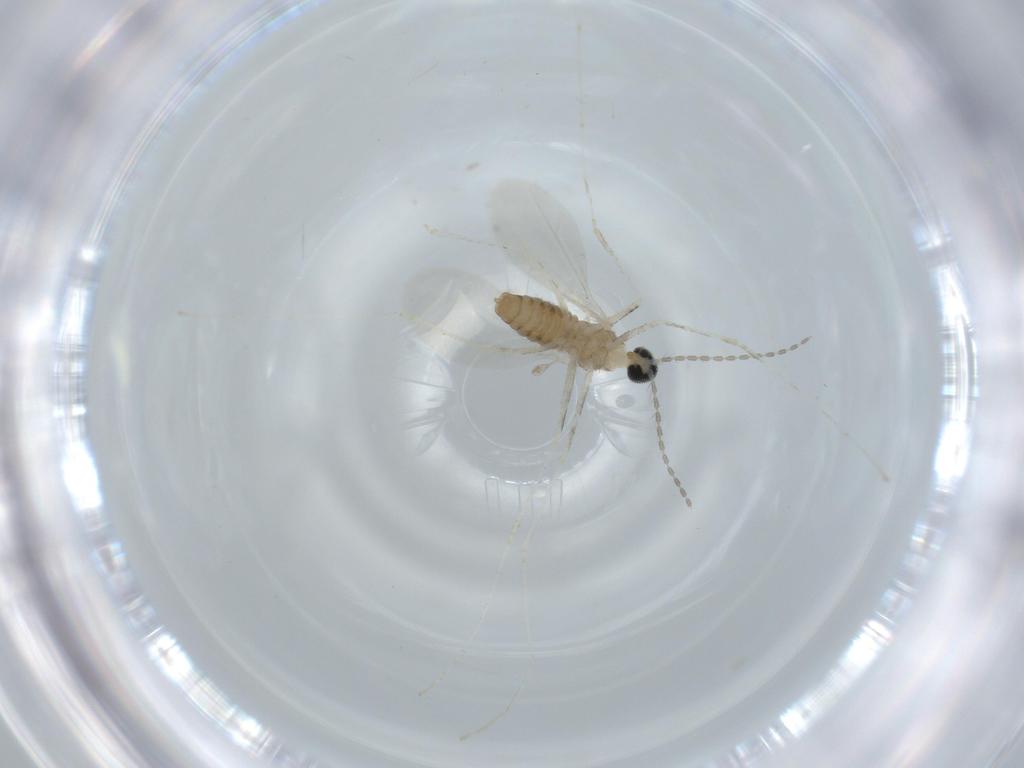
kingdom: Animalia
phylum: Arthropoda
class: Insecta
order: Diptera
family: Cecidomyiidae
